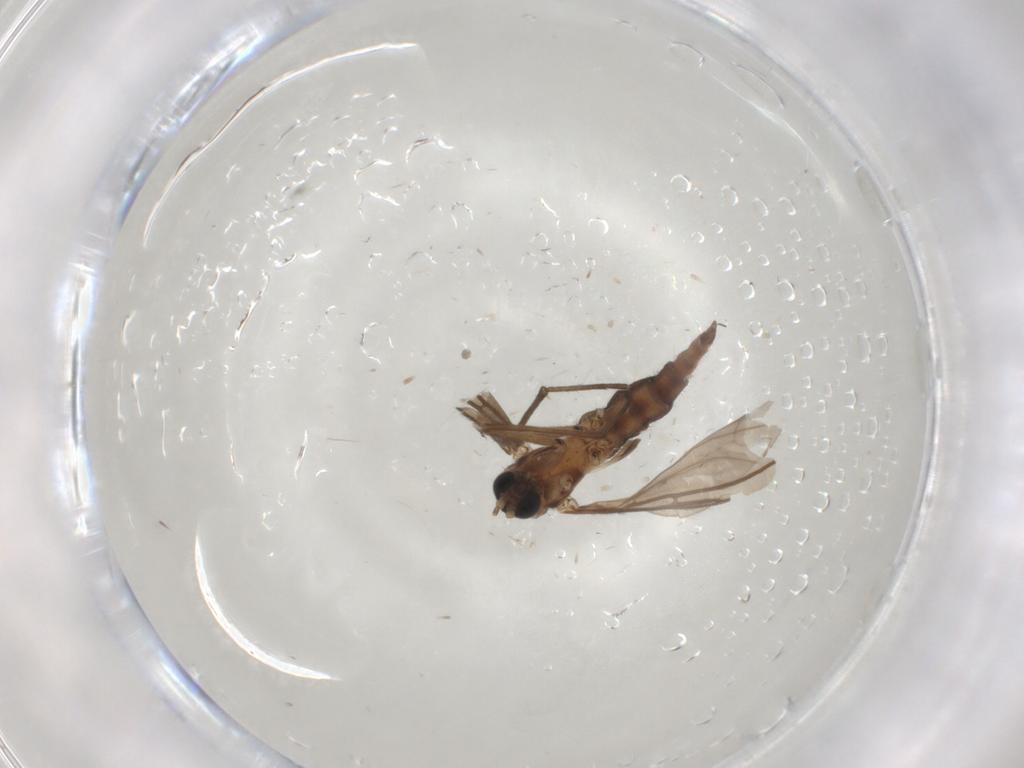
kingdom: Animalia
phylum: Arthropoda
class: Insecta
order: Diptera
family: Sciaridae
